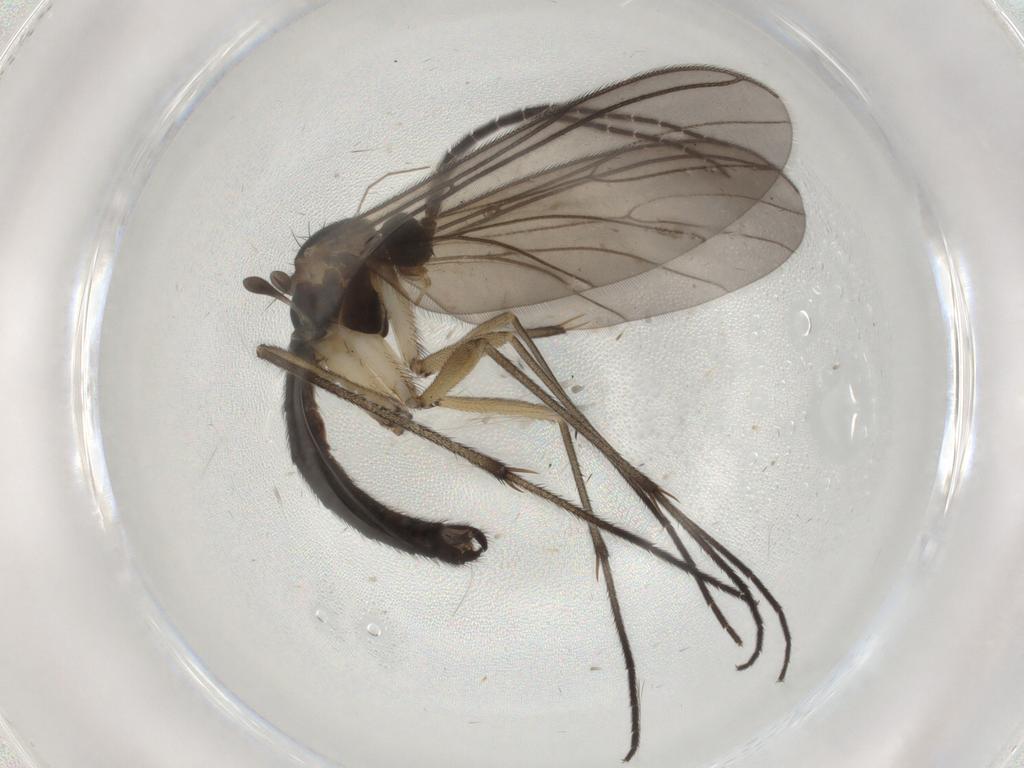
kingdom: Animalia
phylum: Arthropoda
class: Insecta
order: Diptera
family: Sciaridae
